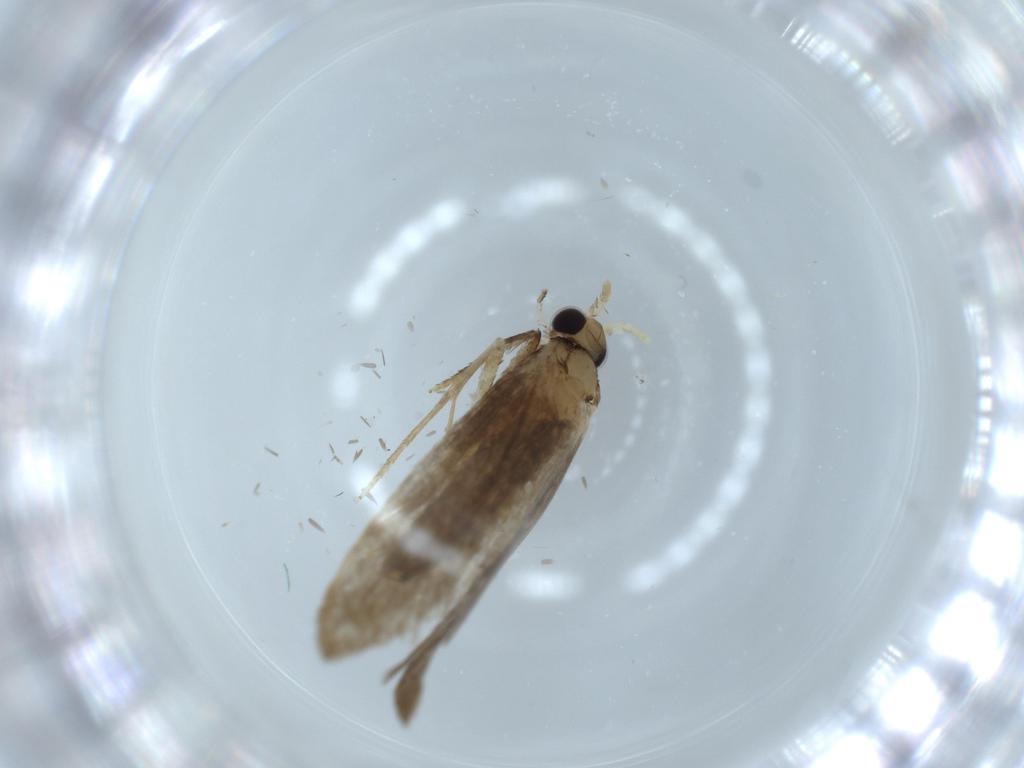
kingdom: Animalia
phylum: Arthropoda
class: Insecta
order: Lepidoptera
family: Tineidae
